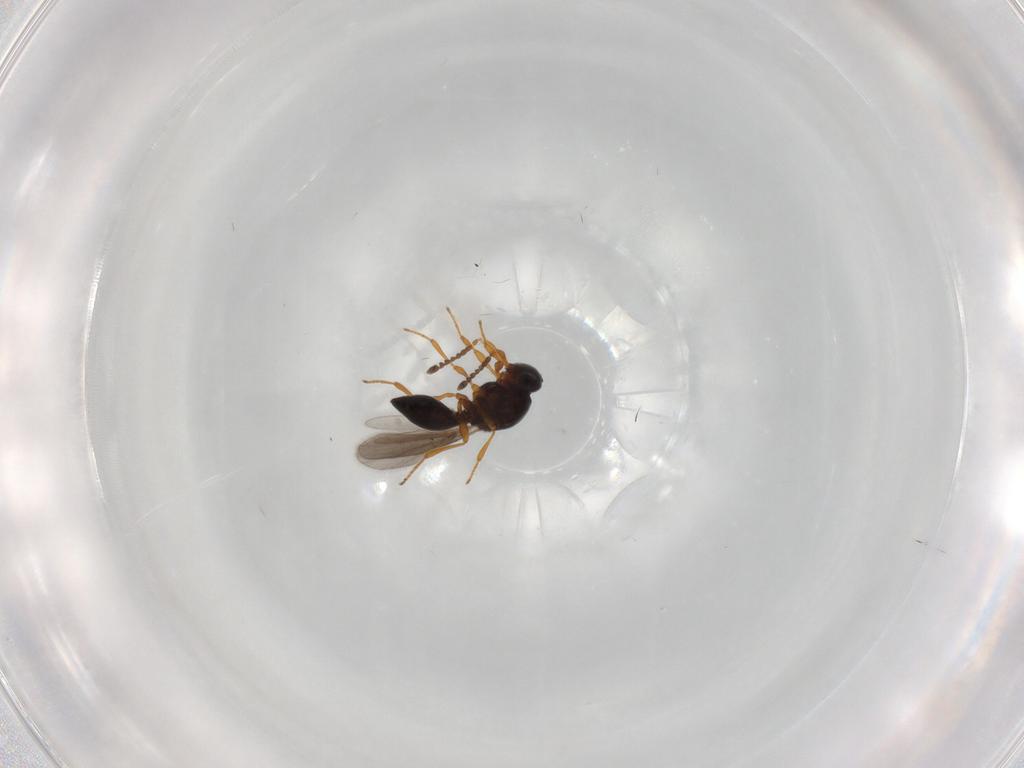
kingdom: Animalia
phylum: Arthropoda
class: Insecta
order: Hymenoptera
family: Platygastridae
